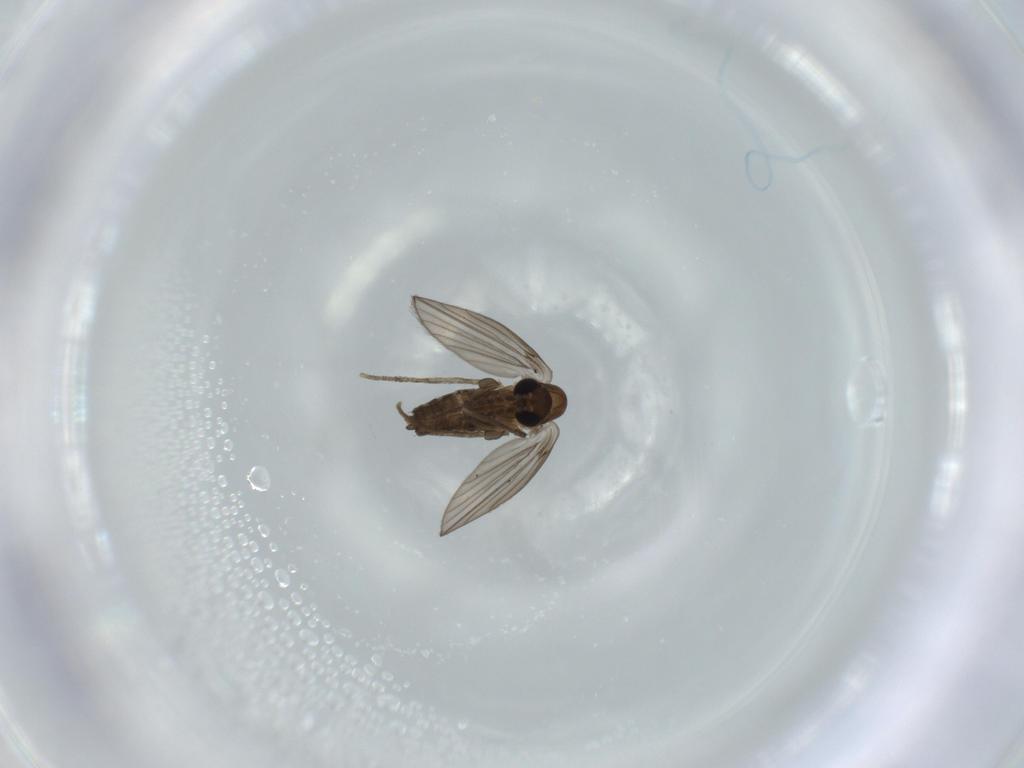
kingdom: Animalia
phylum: Arthropoda
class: Insecta
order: Diptera
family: Psychodidae
